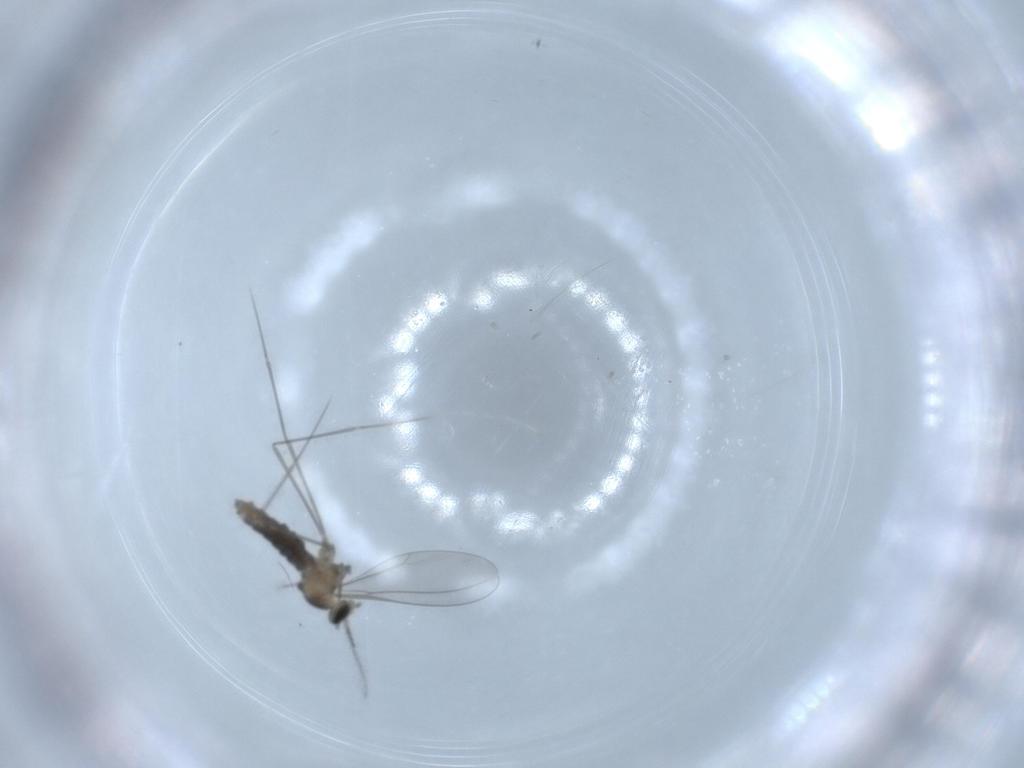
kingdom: Animalia
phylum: Arthropoda
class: Insecta
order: Diptera
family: Cecidomyiidae
